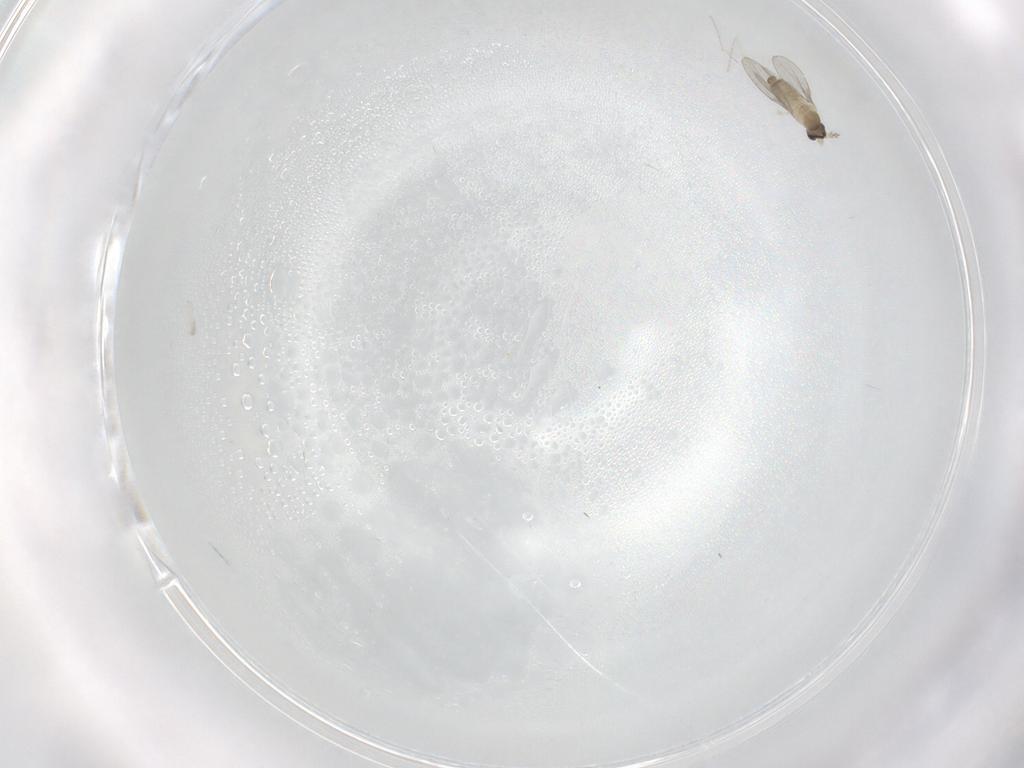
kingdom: Animalia
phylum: Arthropoda
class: Insecta
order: Diptera
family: Cecidomyiidae
